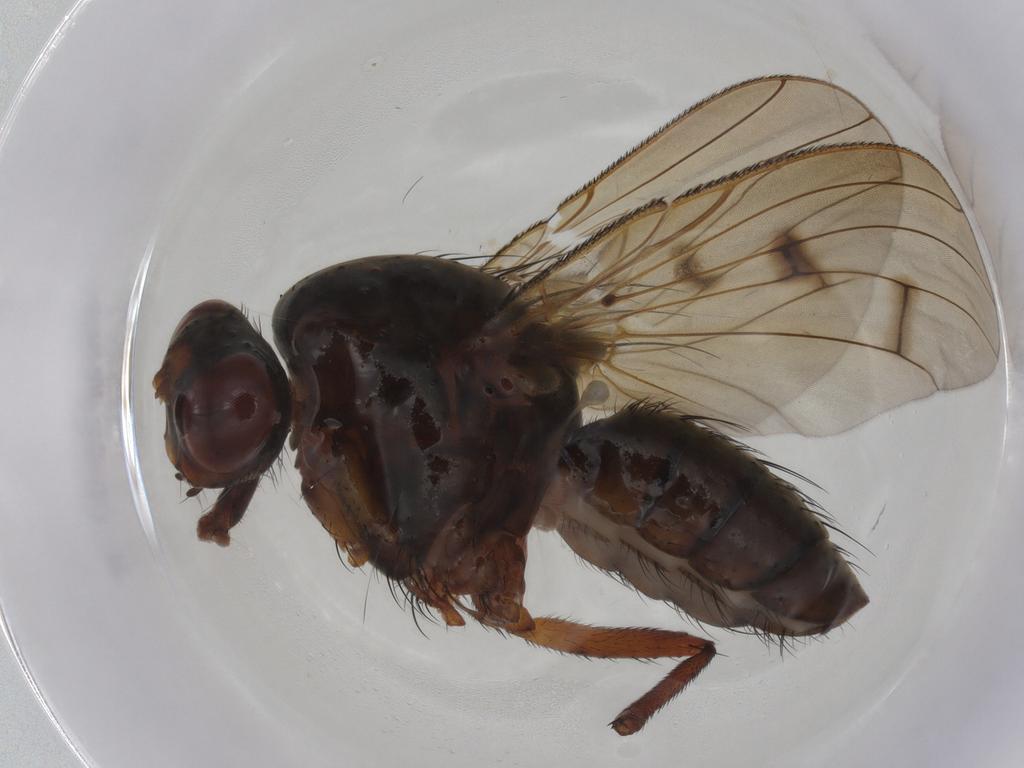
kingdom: Animalia
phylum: Arthropoda
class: Insecta
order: Diptera
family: Anthomyiidae
